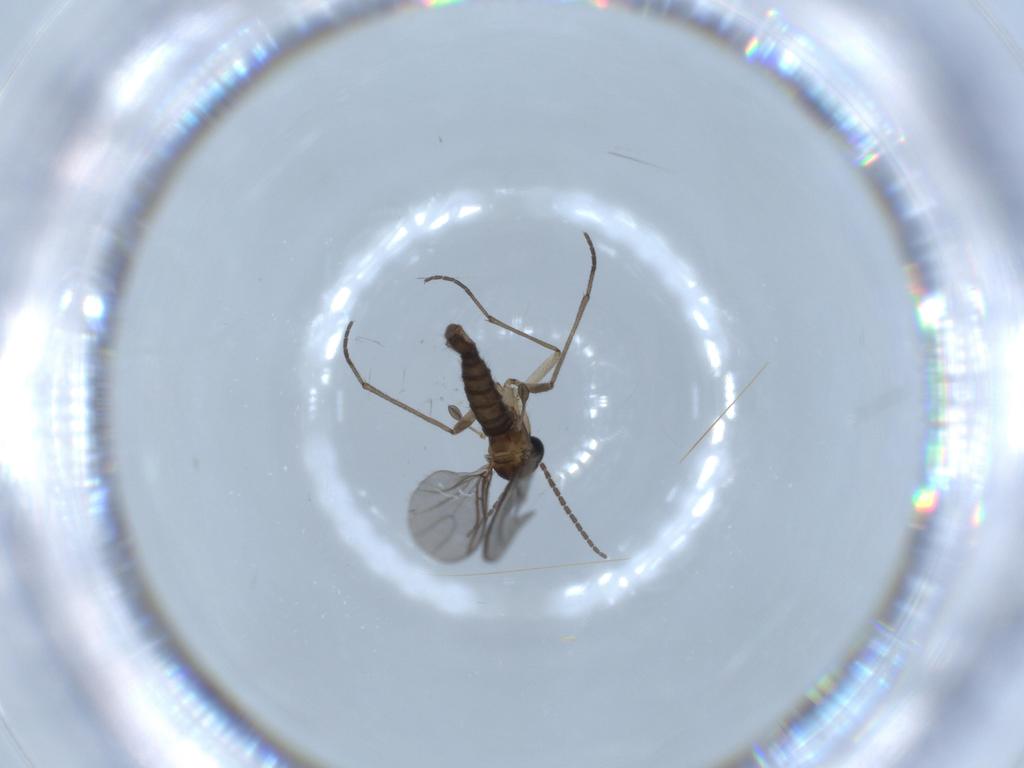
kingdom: Animalia
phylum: Arthropoda
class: Insecta
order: Diptera
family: Sciaridae
